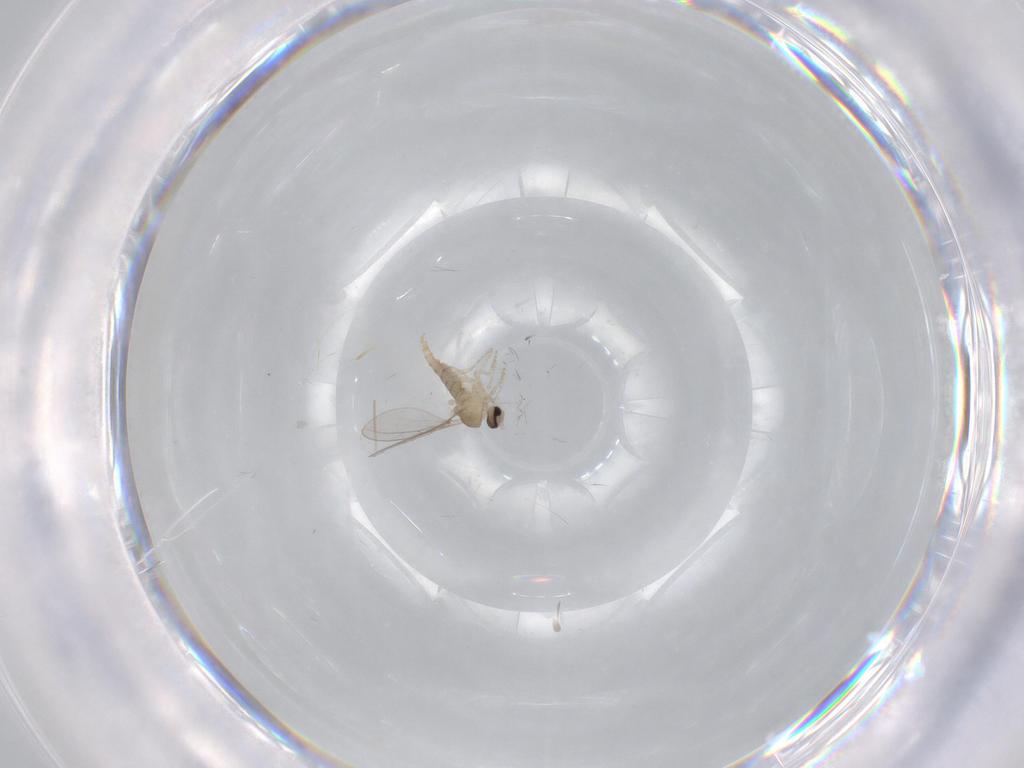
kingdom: Animalia
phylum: Arthropoda
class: Insecta
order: Diptera
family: Cecidomyiidae
